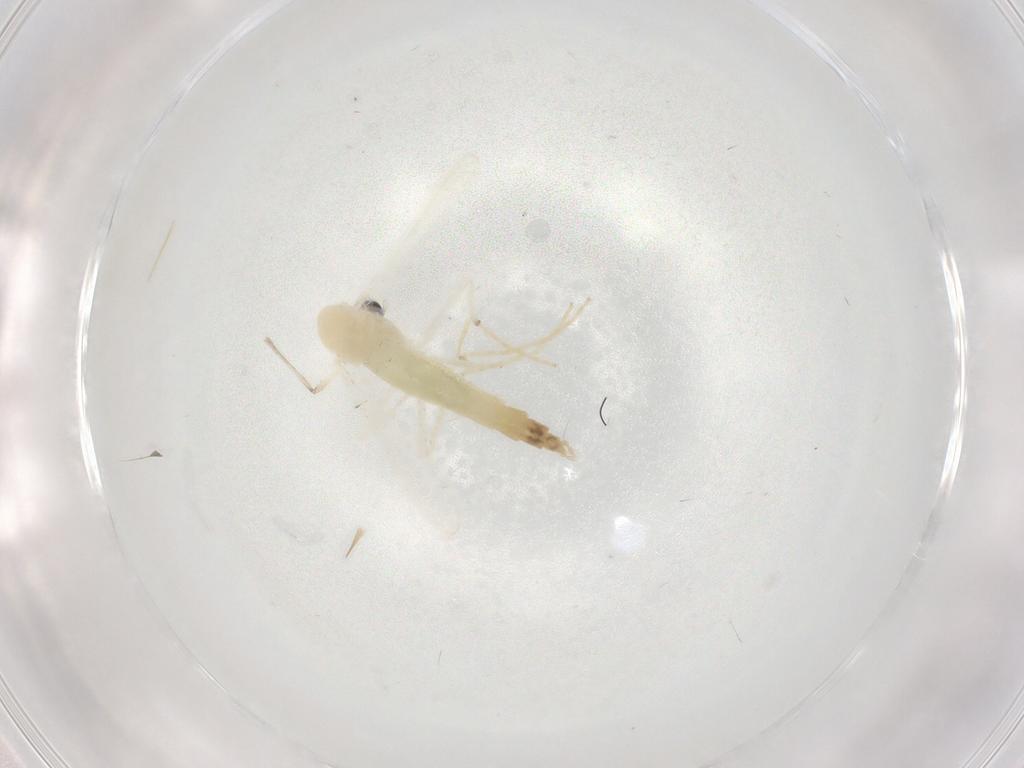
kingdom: Animalia
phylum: Arthropoda
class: Insecta
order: Diptera
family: Chironomidae
